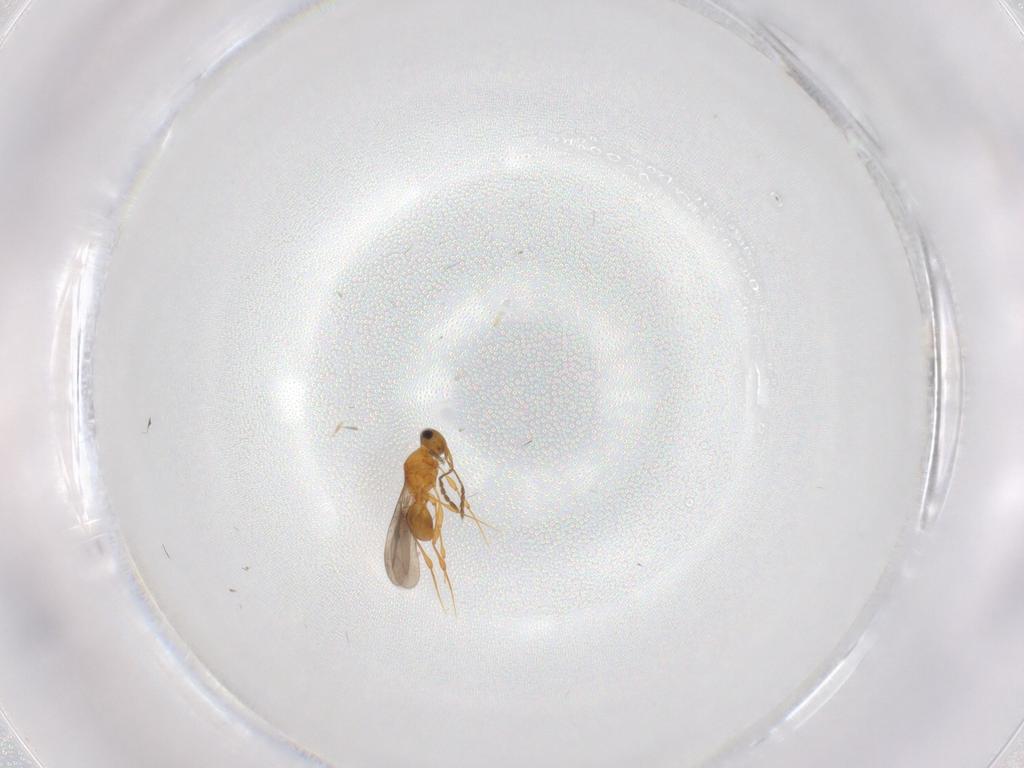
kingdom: Animalia
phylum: Arthropoda
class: Insecta
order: Hymenoptera
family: Platygastridae
